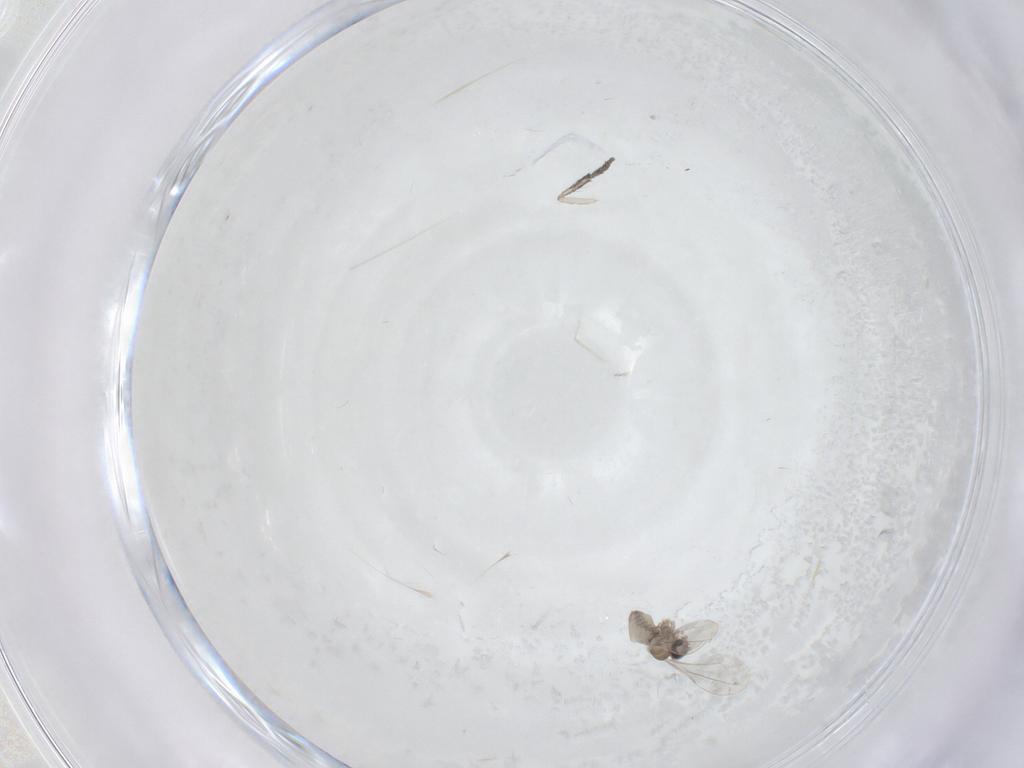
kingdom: Animalia
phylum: Arthropoda
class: Insecta
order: Diptera
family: Cecidomyiidae
